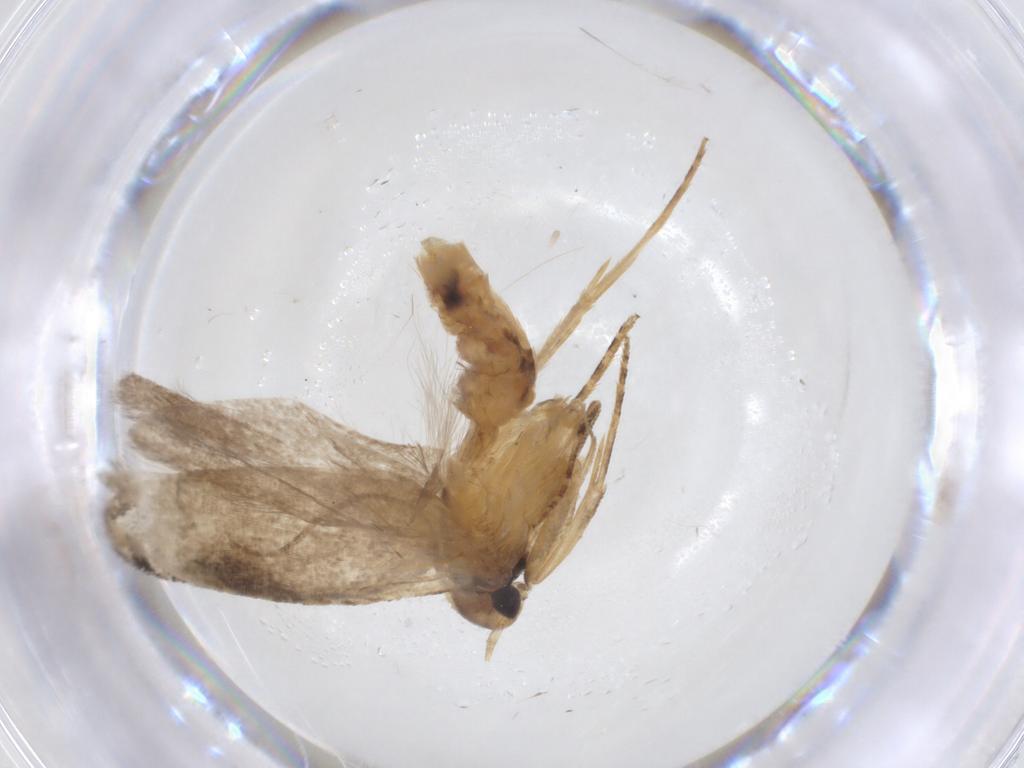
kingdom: Animalia
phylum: Arthropoda
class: Insecta
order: Lepidoptera
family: Gelechiidae
